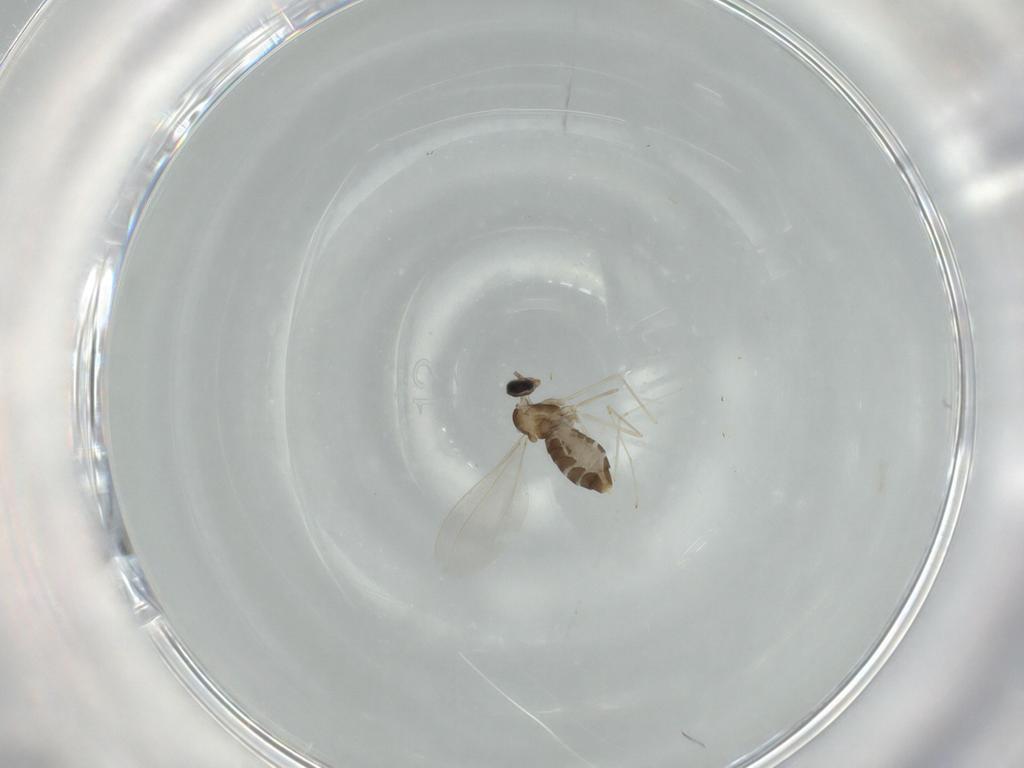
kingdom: Animalia
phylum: Arthropoda
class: Insecta
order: Diptera
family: Cecidomyiidae
